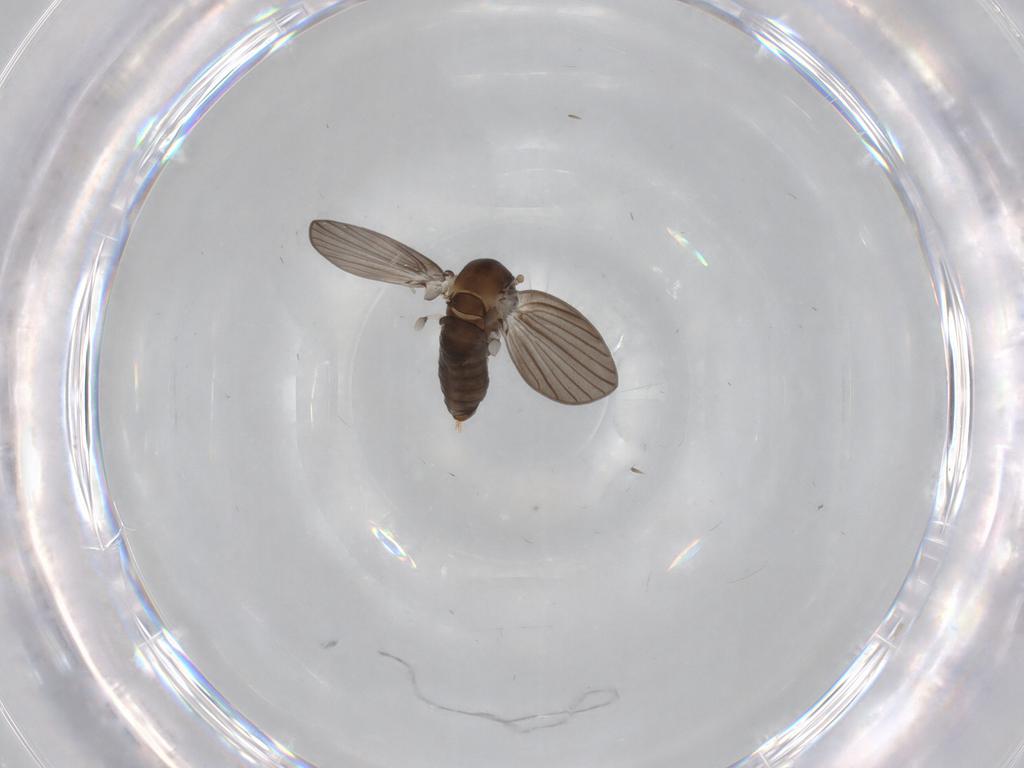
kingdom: Animalia
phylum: Arthropoda
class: Insecta
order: Diptera
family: Psychodidae
